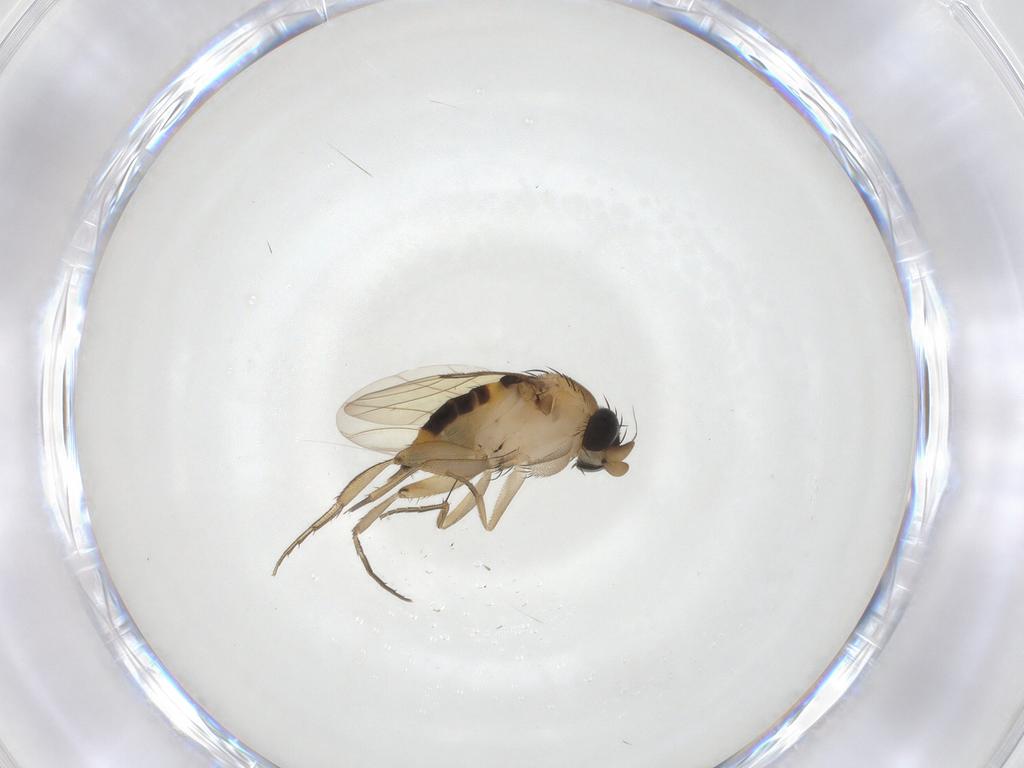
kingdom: Animalia
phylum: Arthropoda
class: Insecta
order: Diptera
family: Phoridae
